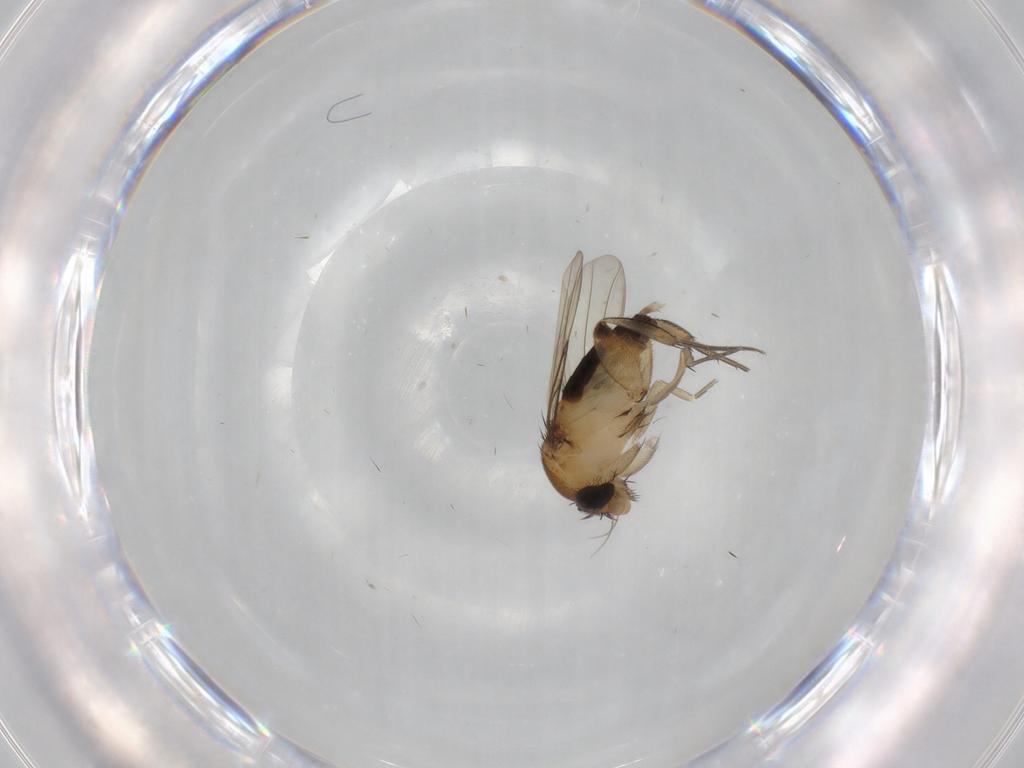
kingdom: Animalia
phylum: Arthropoda
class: Insecta
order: Diptera
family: Phoridae
